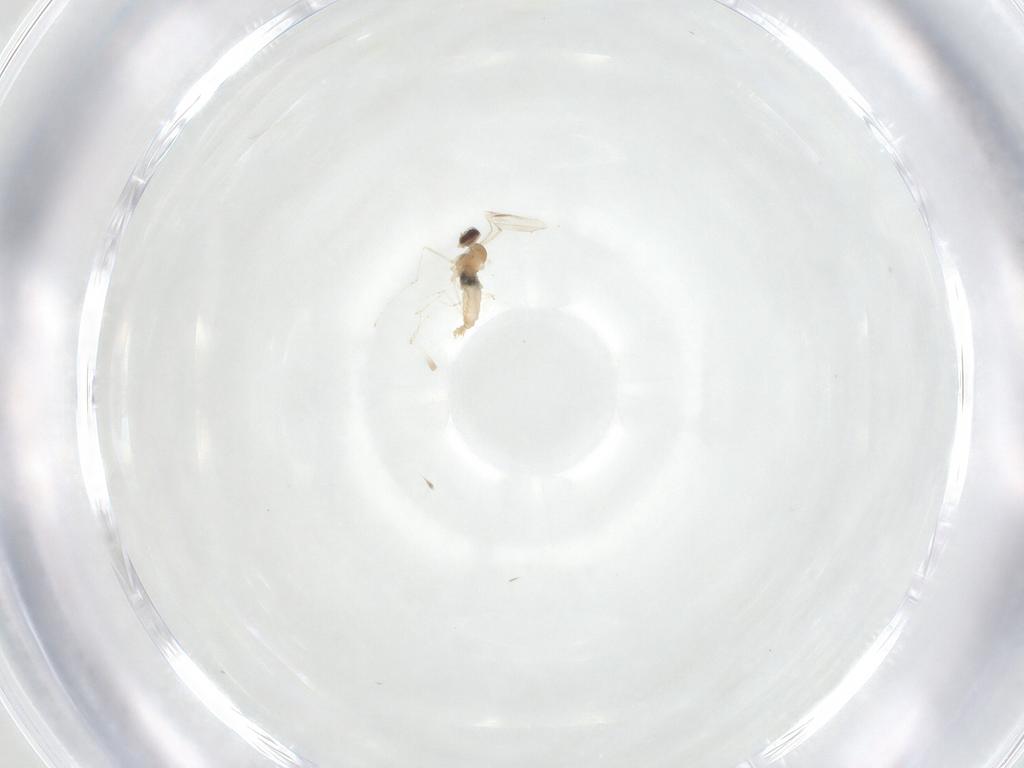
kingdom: Animalia
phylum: Arthropoda
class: Insecta
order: Diptera
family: Cecidomyiidae
